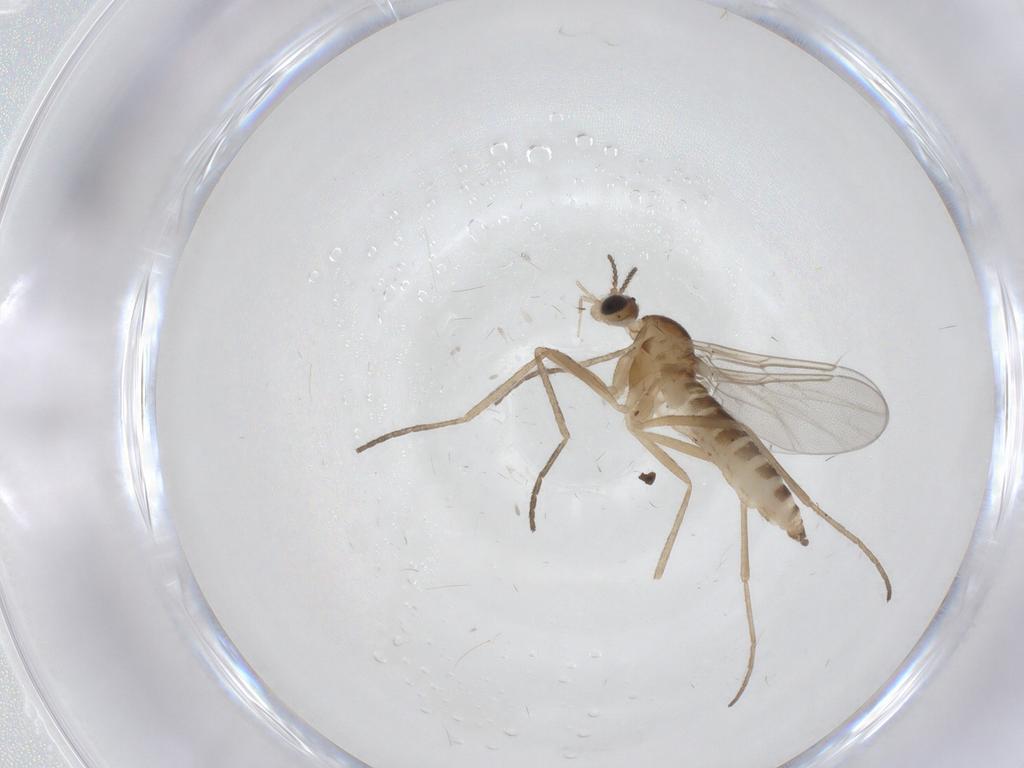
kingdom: Animalia
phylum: Arthropoda
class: Insecta
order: Diptera
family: Cecidomyiidae
